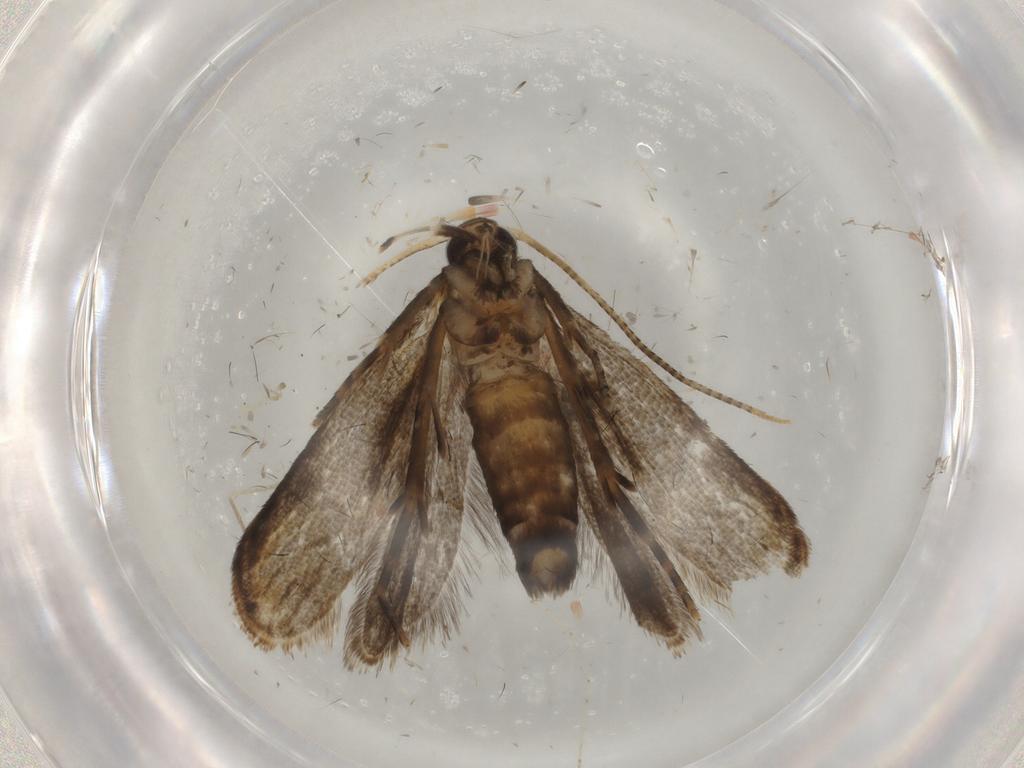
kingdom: Animalia
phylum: Arthropoda
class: Insecta
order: Lepidoptera
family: Gelechiidae
